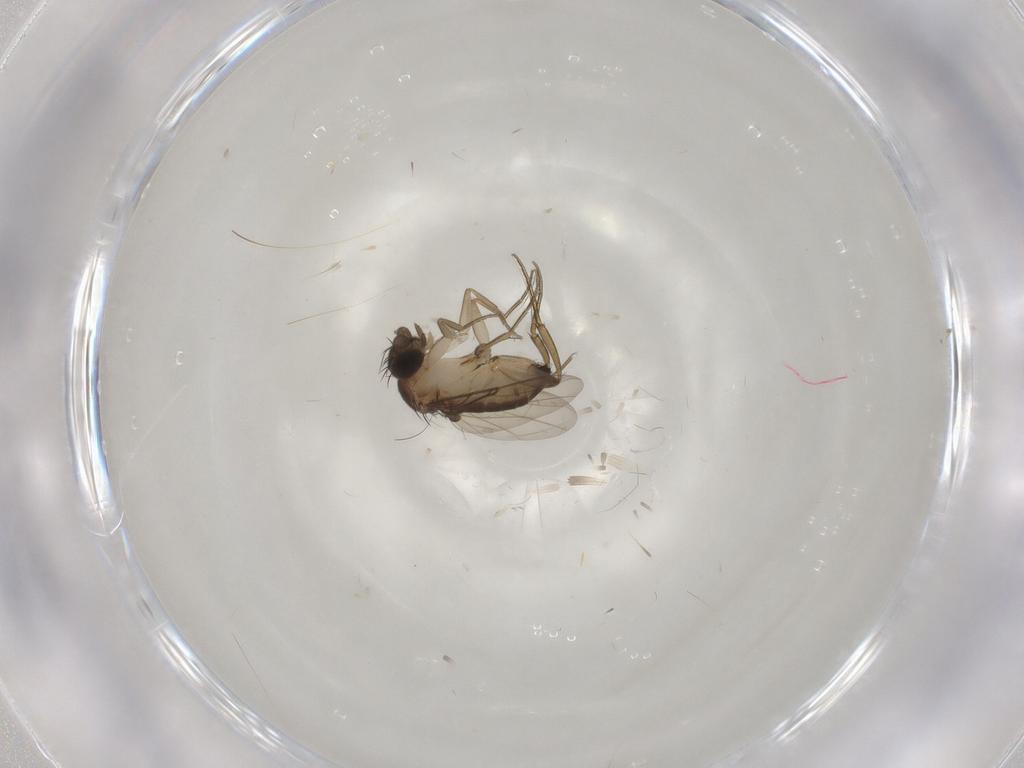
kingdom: Animalia
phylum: Arthropoda
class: Insecta
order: Diptera
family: Phoridae
